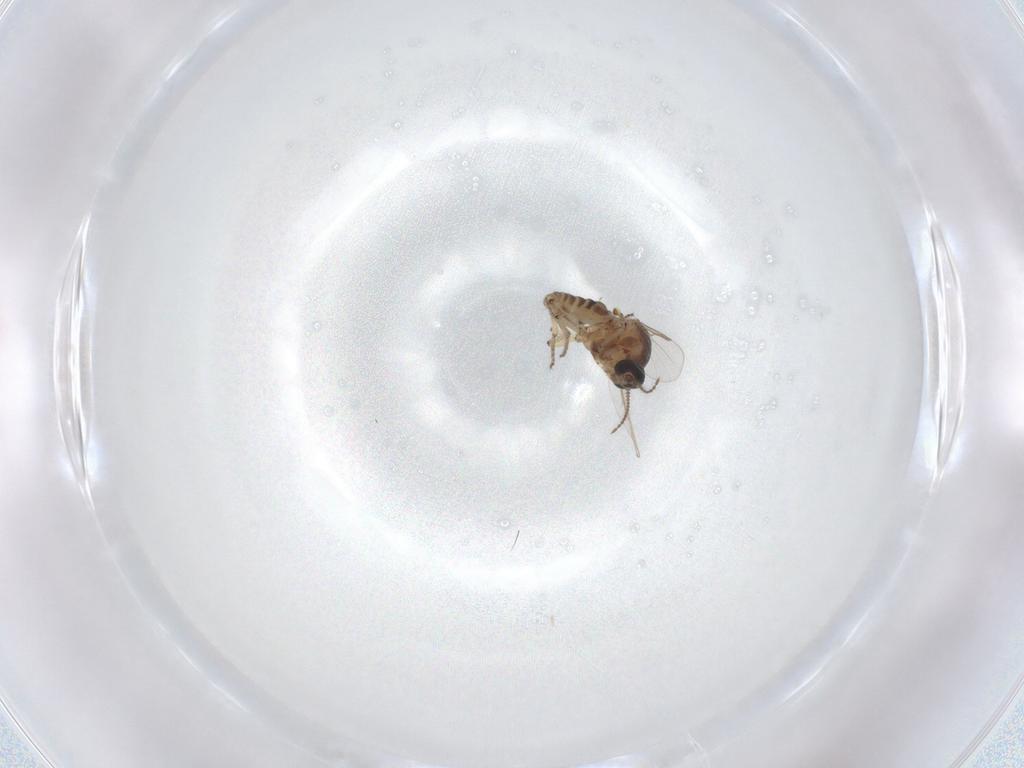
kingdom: Animalia
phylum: Arthropoda
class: Insecta
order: Diptera
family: Ceratopogonidae
